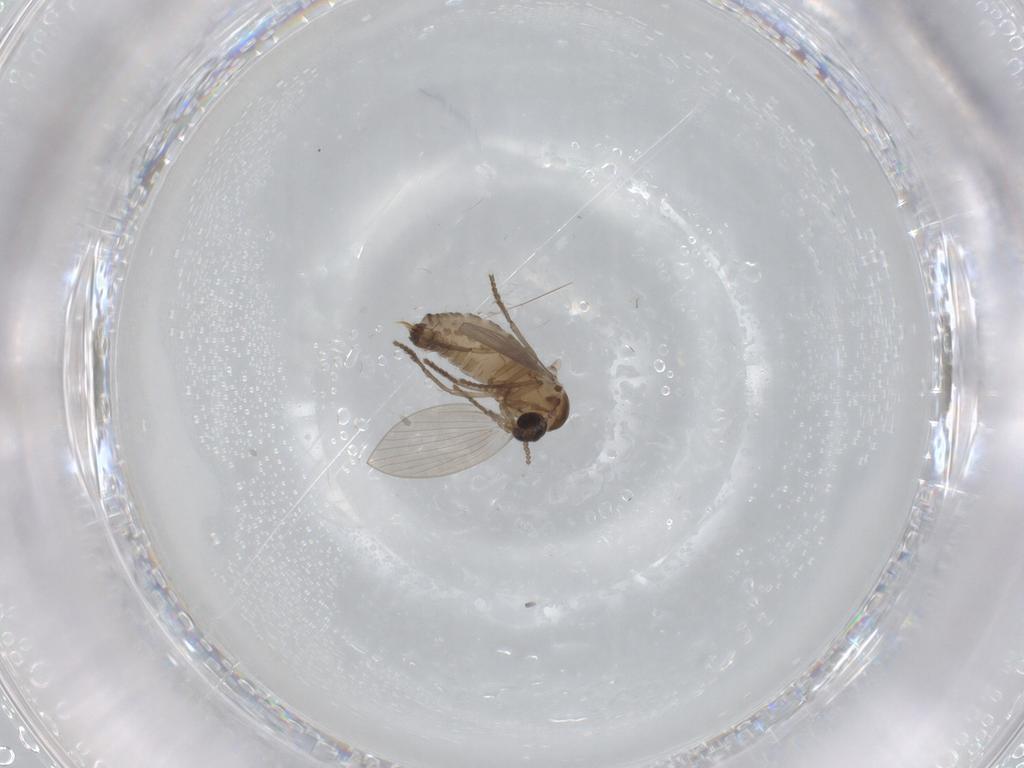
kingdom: Animalia
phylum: Arthropoda
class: Insecta
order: Diptera
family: Psychodidae
